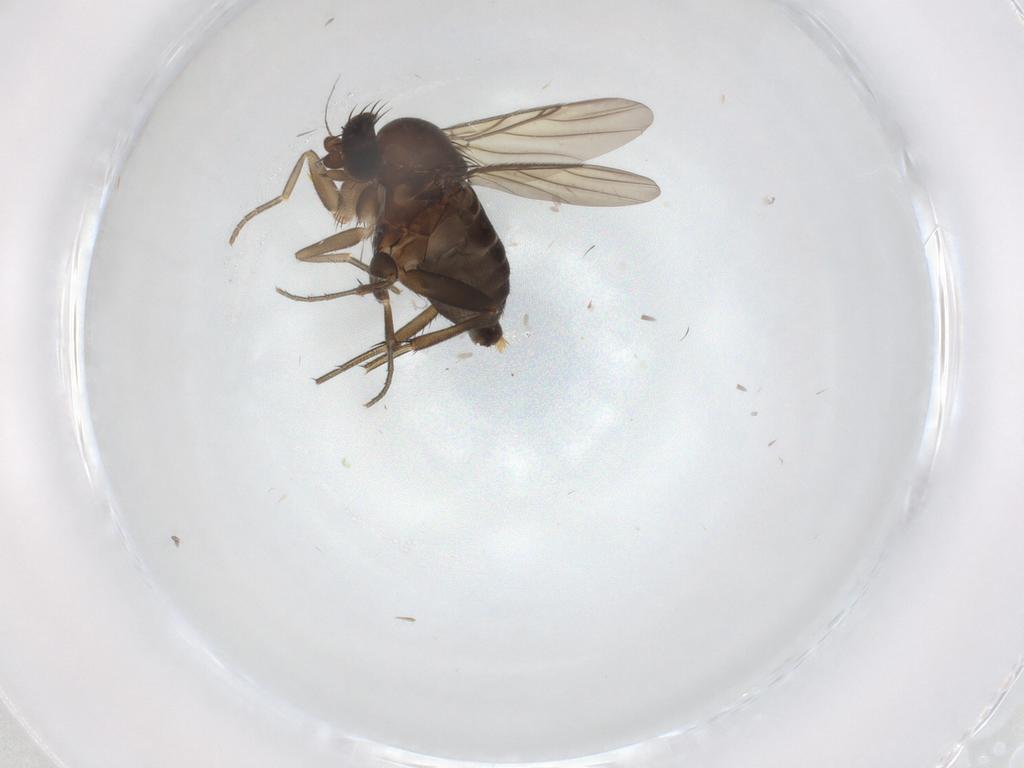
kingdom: Animalia
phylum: Arthropoda
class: Insecta
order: Diptera
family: Phoridae
